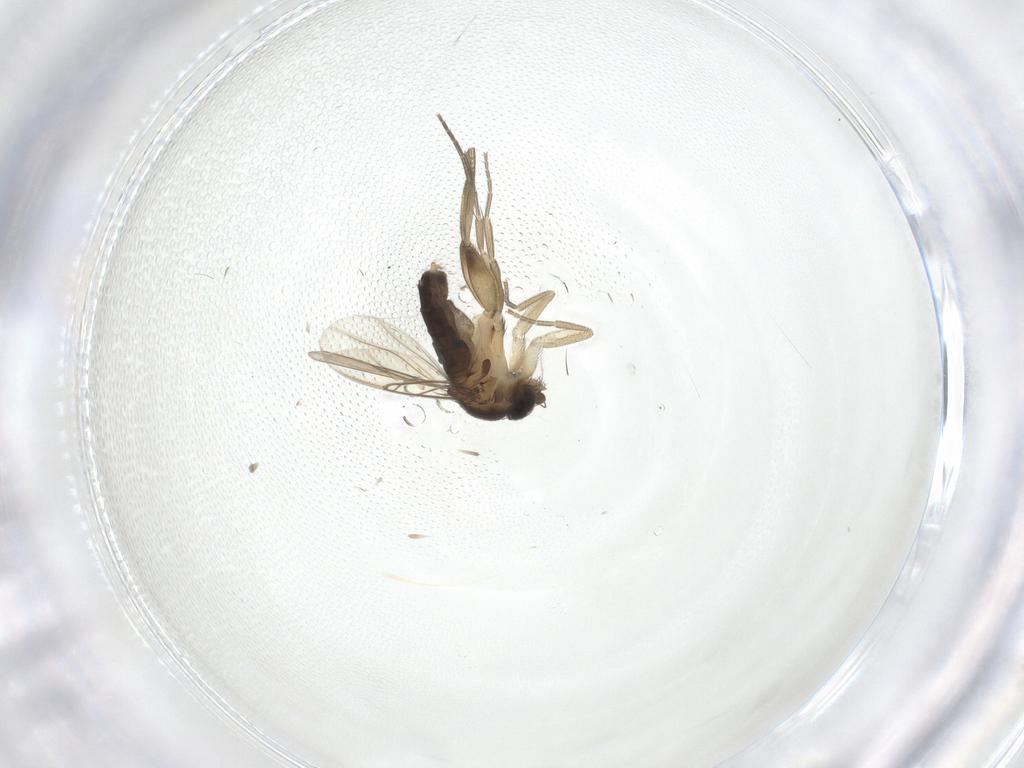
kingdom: Animalia
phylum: Arthropoda
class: Insecta
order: Diptera
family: Phoridae
